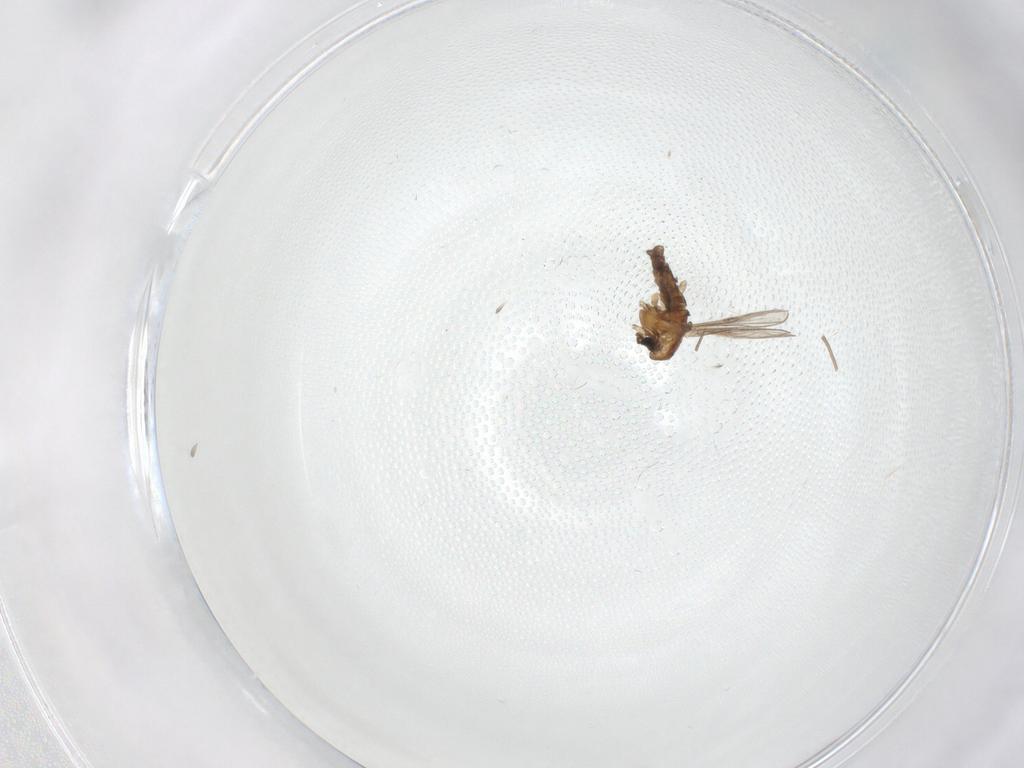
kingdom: Animalia
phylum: Arthropoda
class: Insecta
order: Diptera
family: Chironomidae
